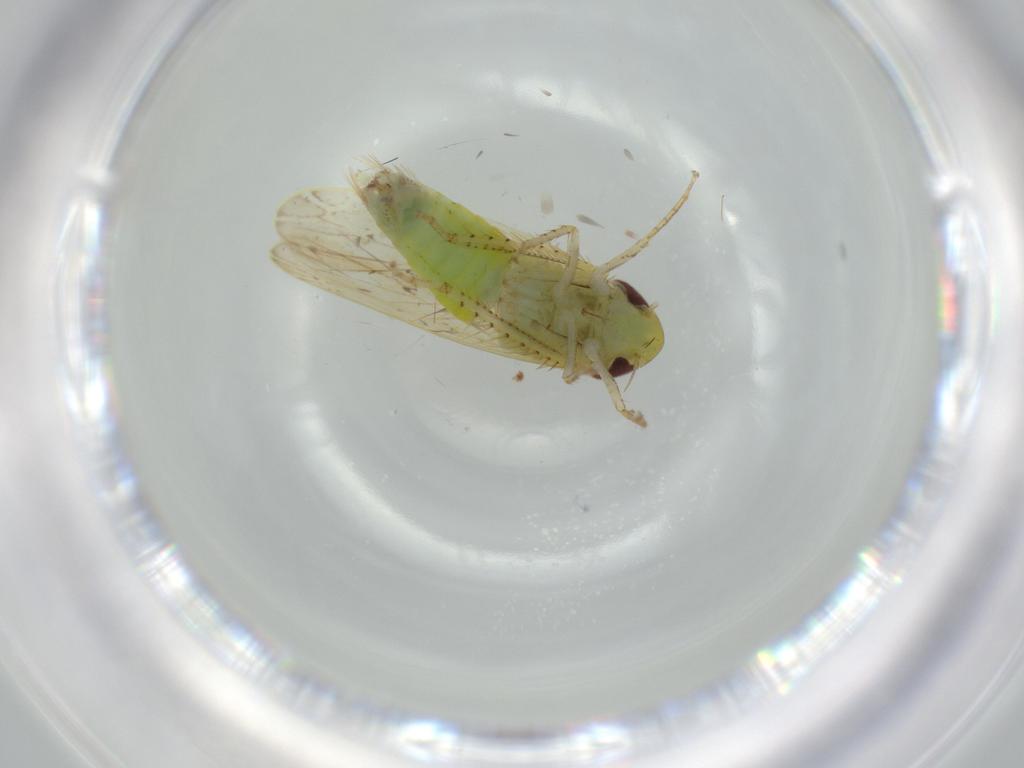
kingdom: Animalia
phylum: Arthropoda
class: Insecta
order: Hemiptera
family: Cicadellidae
